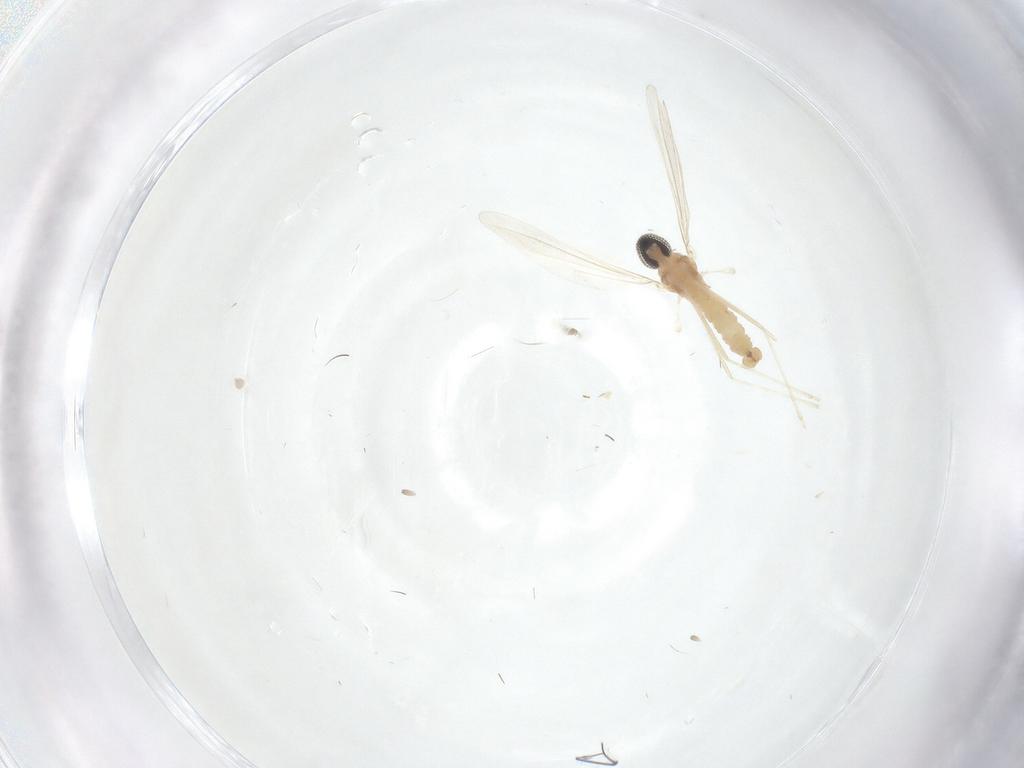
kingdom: Animalia
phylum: Arthropoda
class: Insecta
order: Diptera
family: Cecidomyiidae
